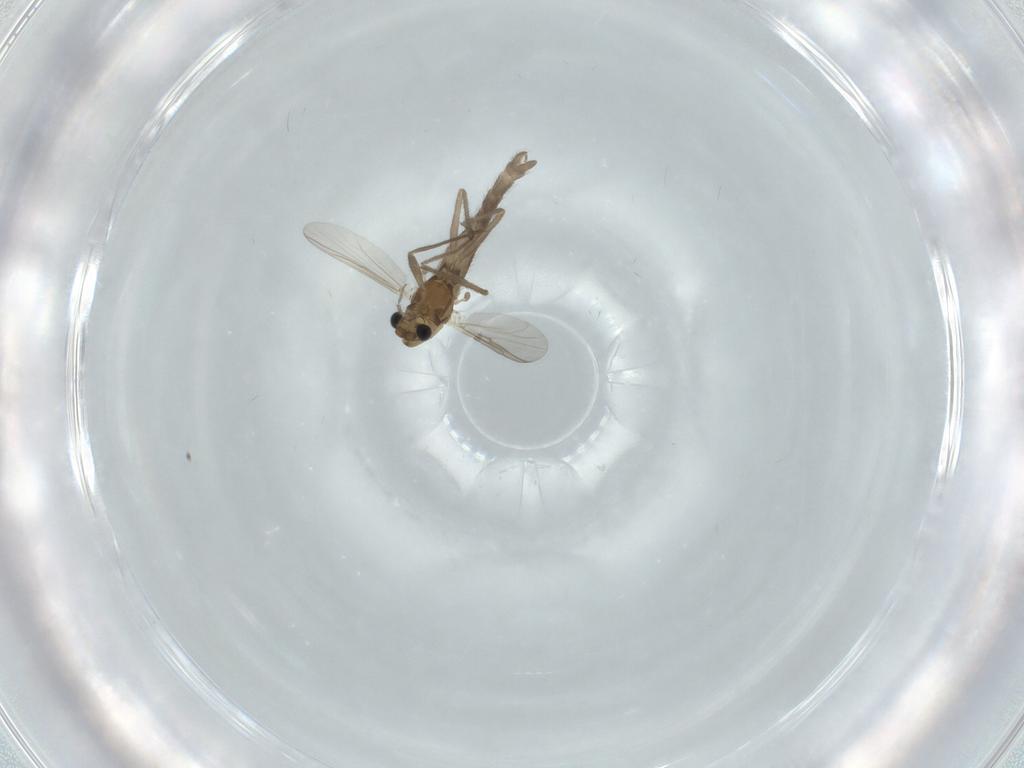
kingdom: Animalia
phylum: Arthropoda
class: Insecta
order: Diptera
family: Chironomidae
